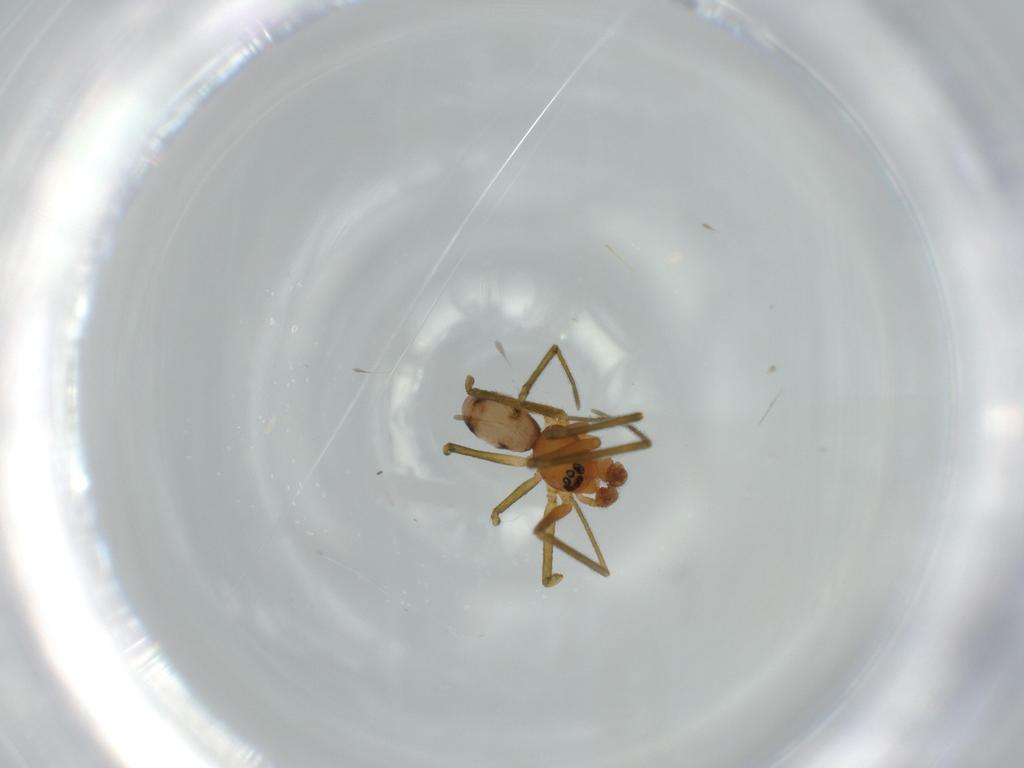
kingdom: Animalia
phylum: Arthropoda
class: Arachnida
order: Araneae
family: Linyphiidae
